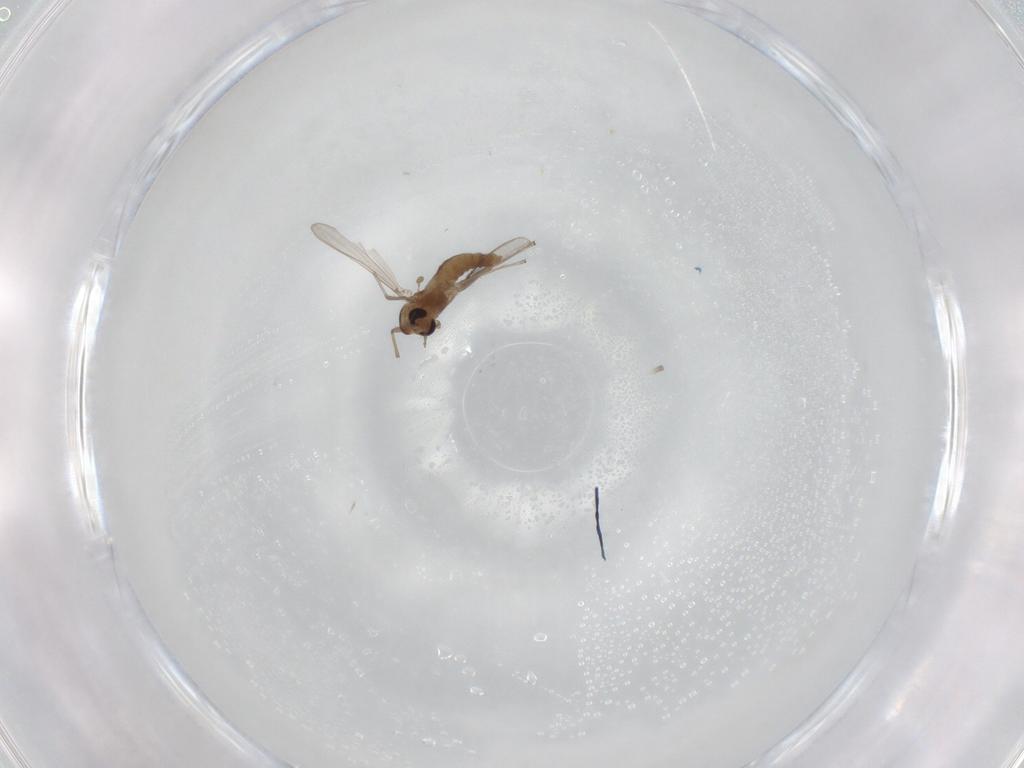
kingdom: Animalia
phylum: Arthropoda
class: Insecta
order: Diptera
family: Chironomidae
